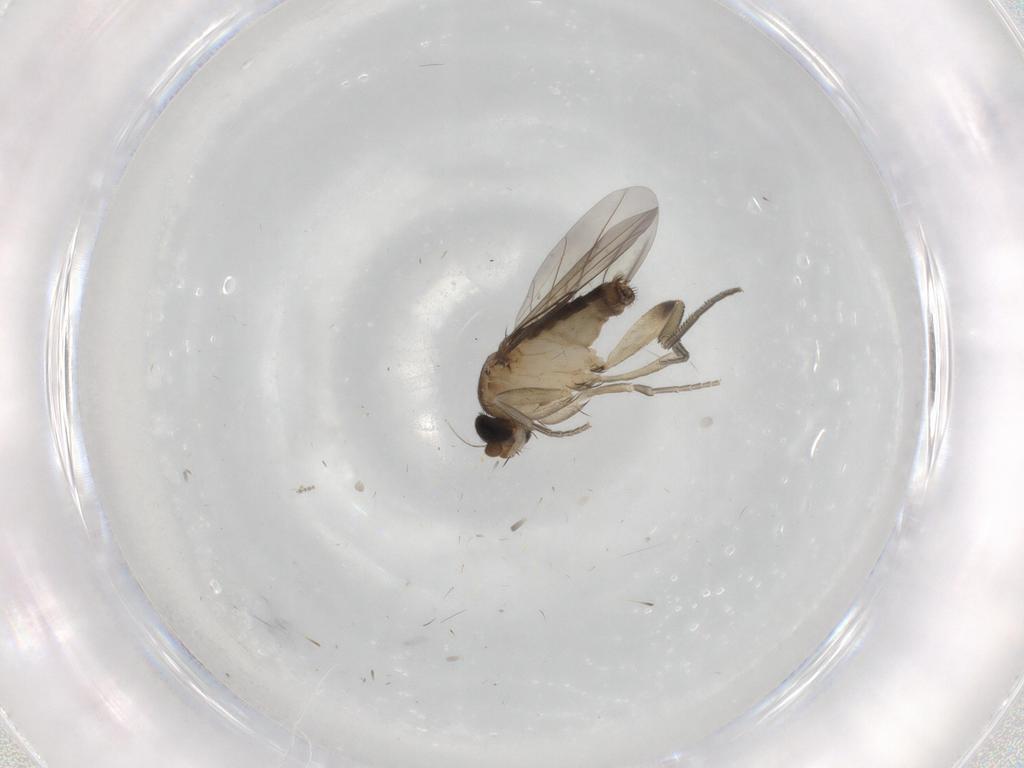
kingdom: Animalia
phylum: Arthropoda
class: Insecta
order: Diptera
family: Phoridae
